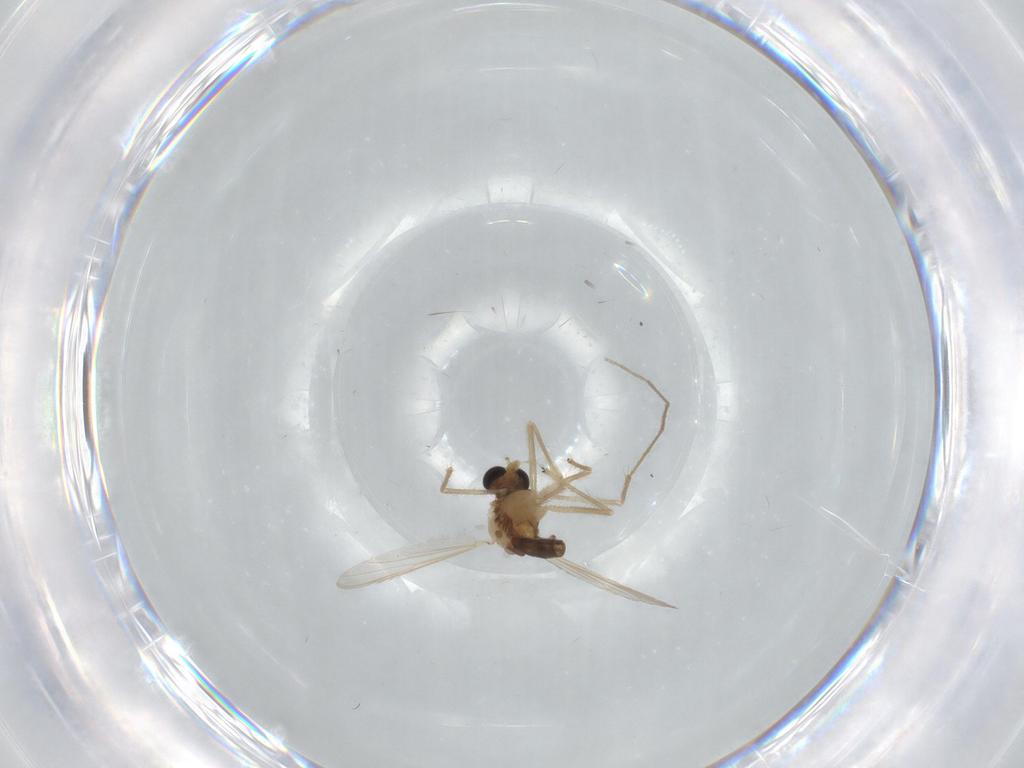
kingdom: Animalia
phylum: Arthropoda
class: Insecta
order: Diptera
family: Chironomidae
